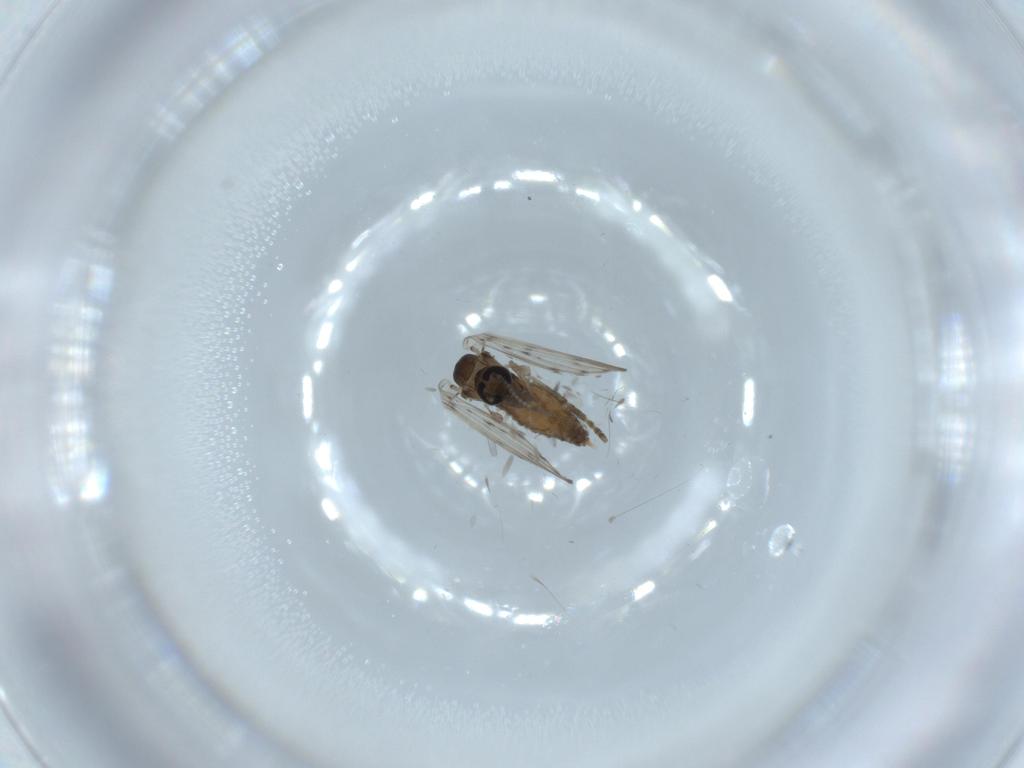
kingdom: Animalia
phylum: Arthropoda
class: Insecta
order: Diptera
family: Psychodidae
